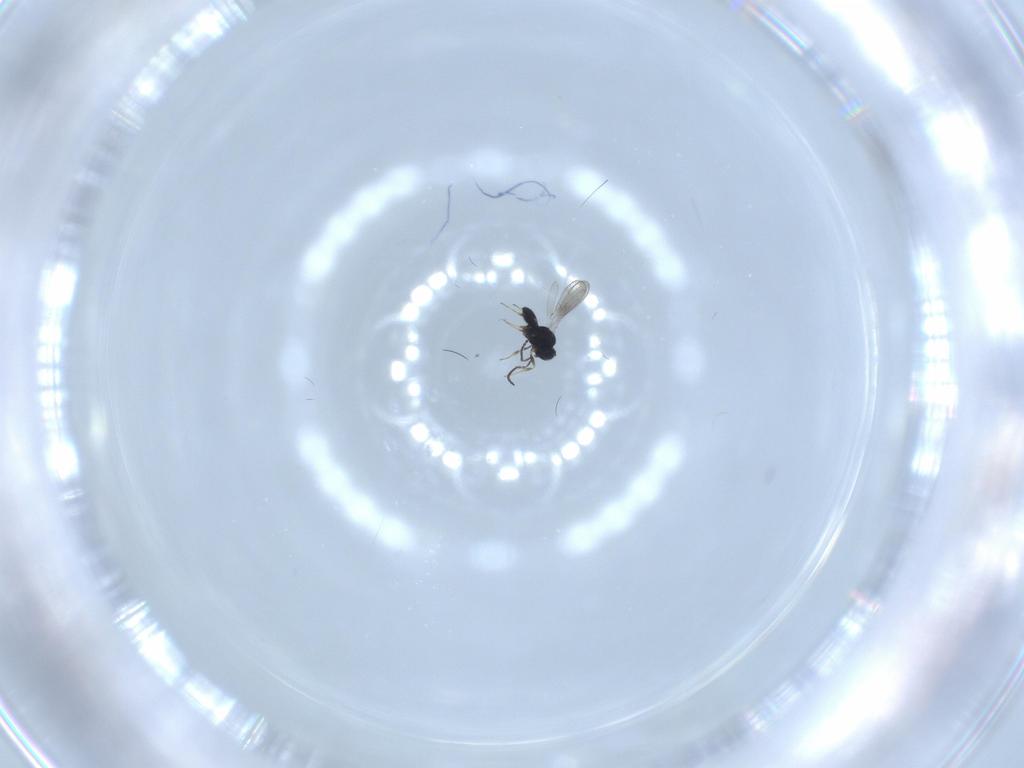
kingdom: Animalia
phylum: Arthropoda
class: Insecta
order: Hymenoptera
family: Scelionidae
